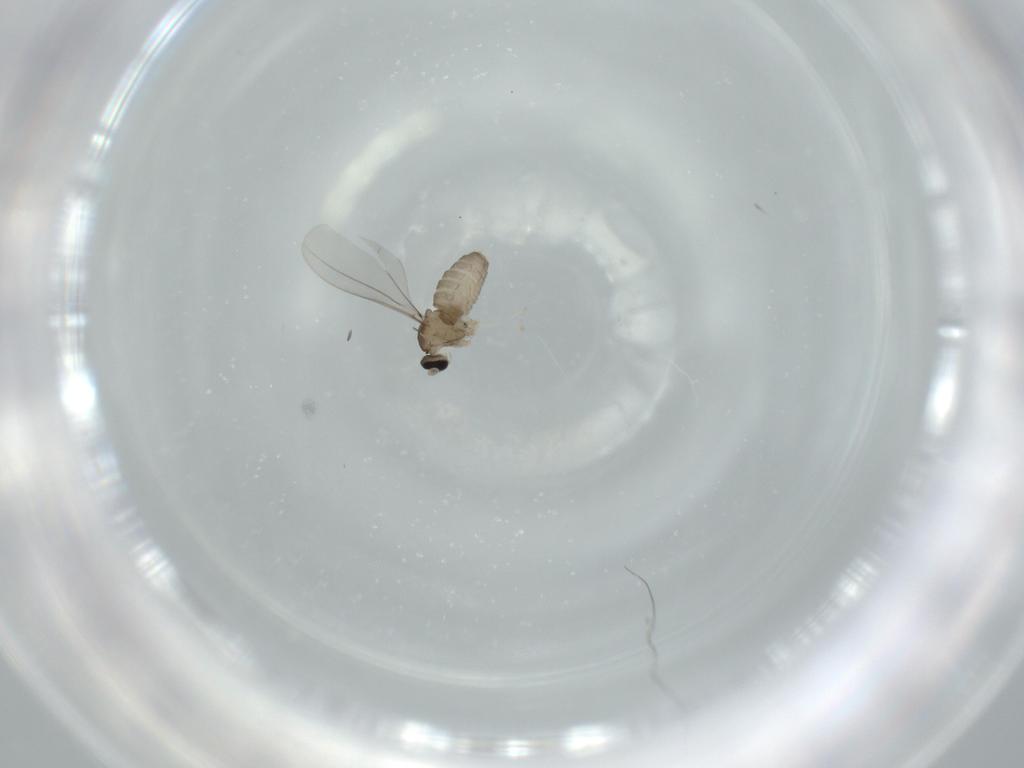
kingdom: Animalia
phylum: Arthropoda
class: Insecta
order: Diptera
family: Cecidomyiidae
